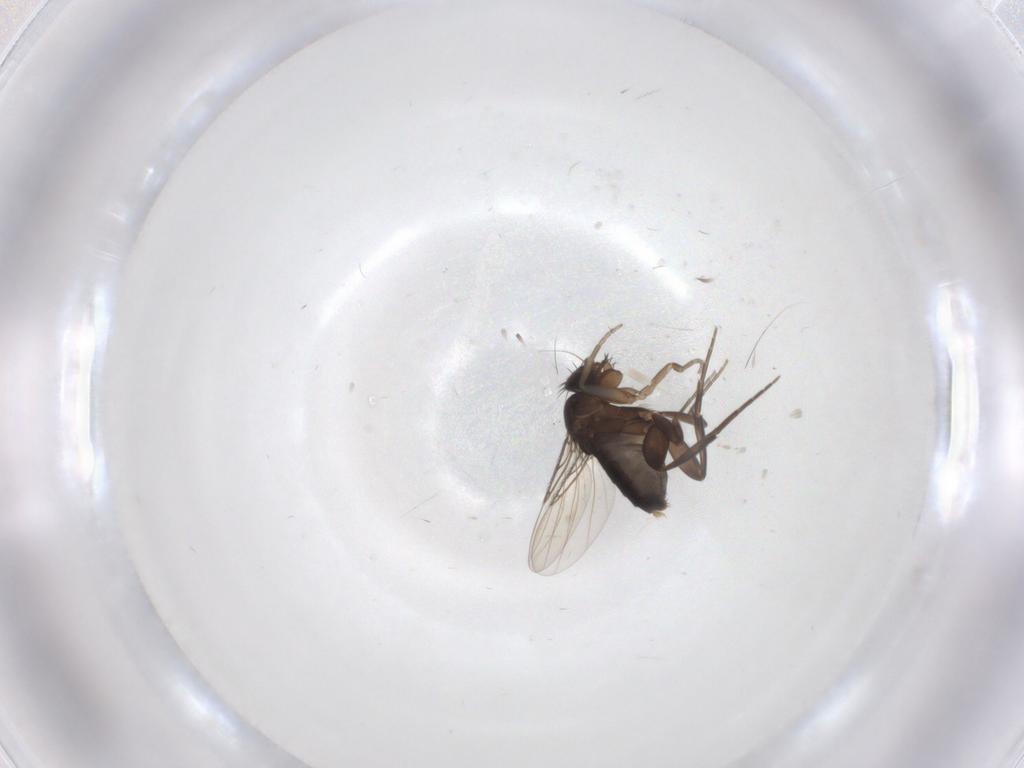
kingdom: Animalia
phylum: Arthropoda
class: Insecta
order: Diptera
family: Phoridae
